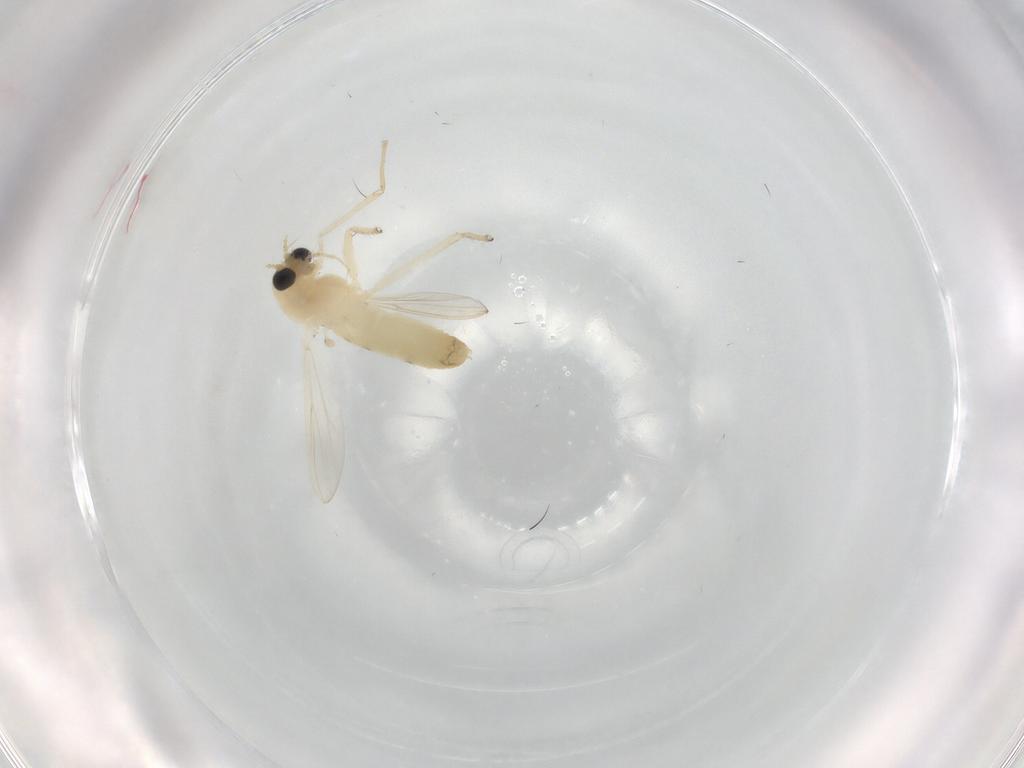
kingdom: Animalia
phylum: Arthropoda
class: Insecta
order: Diptera
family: Chironomidae
